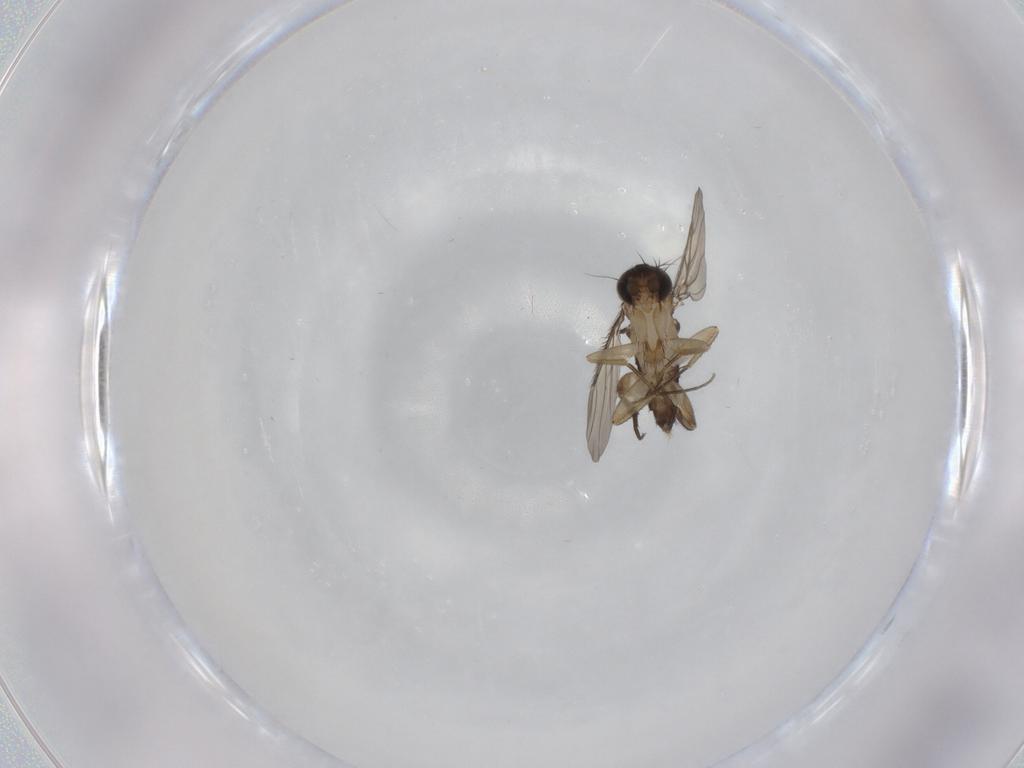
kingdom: Animalia
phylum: Arthropoda
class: Insecta
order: Diptera
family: Phoridae
